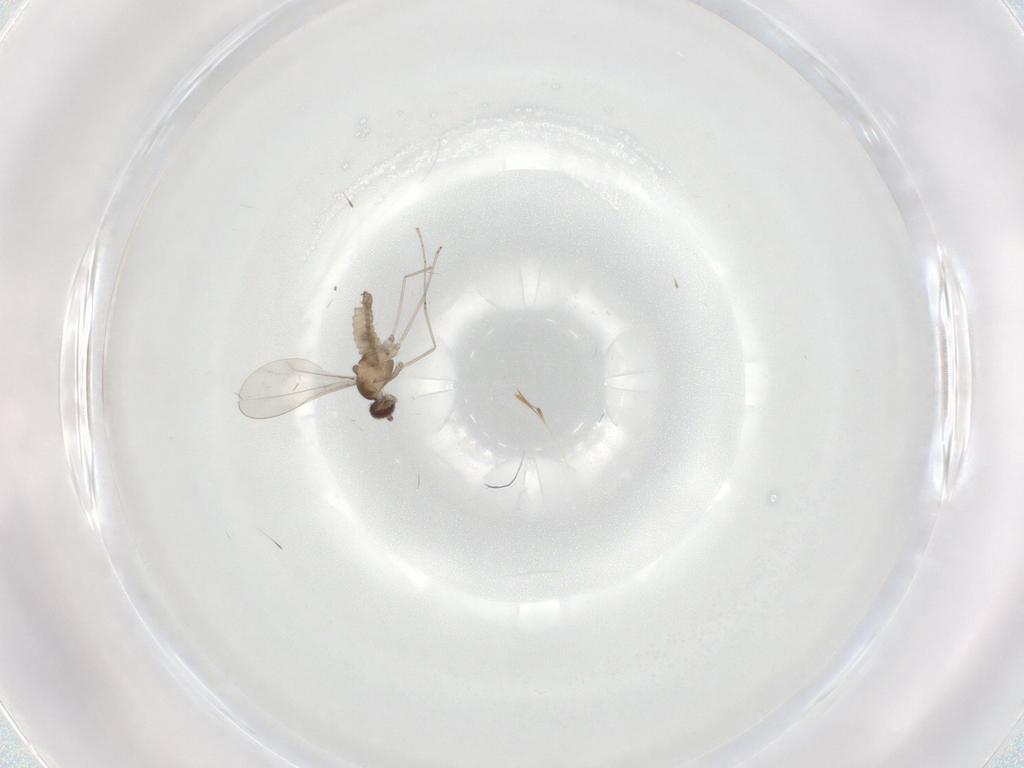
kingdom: Animalia
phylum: Arthropoda
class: Insecta
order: Diptera
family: Cecidomyiidae
